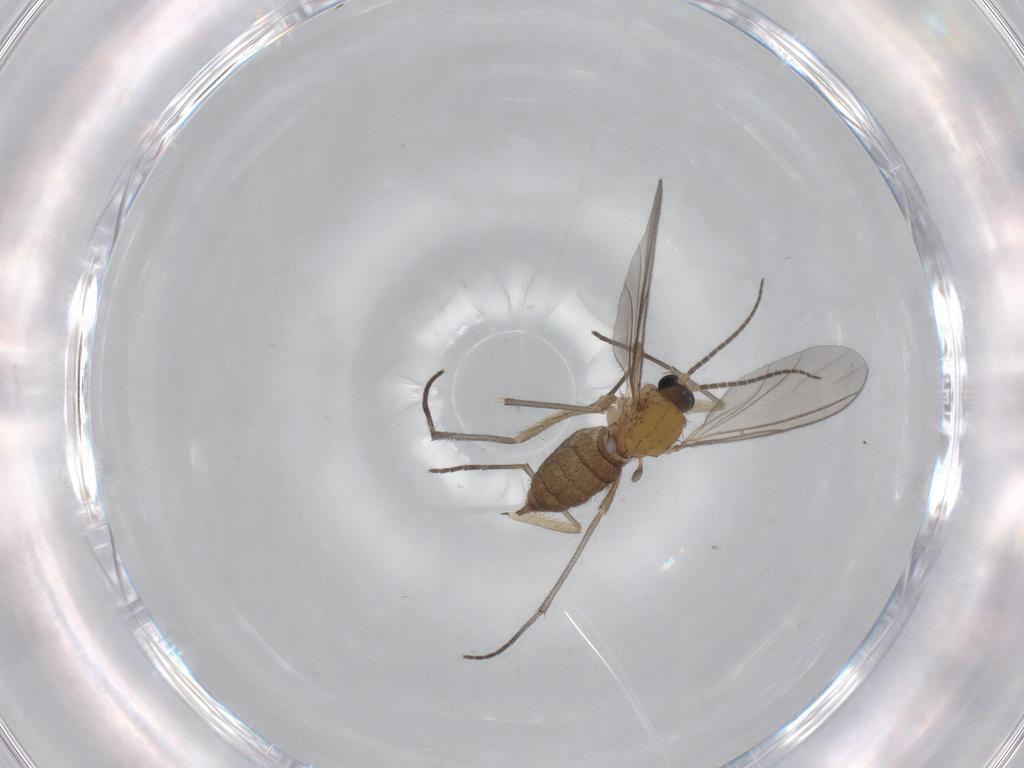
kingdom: Animalia
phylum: Arthropoda
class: Insecta
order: Diptera
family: Sciaridae
